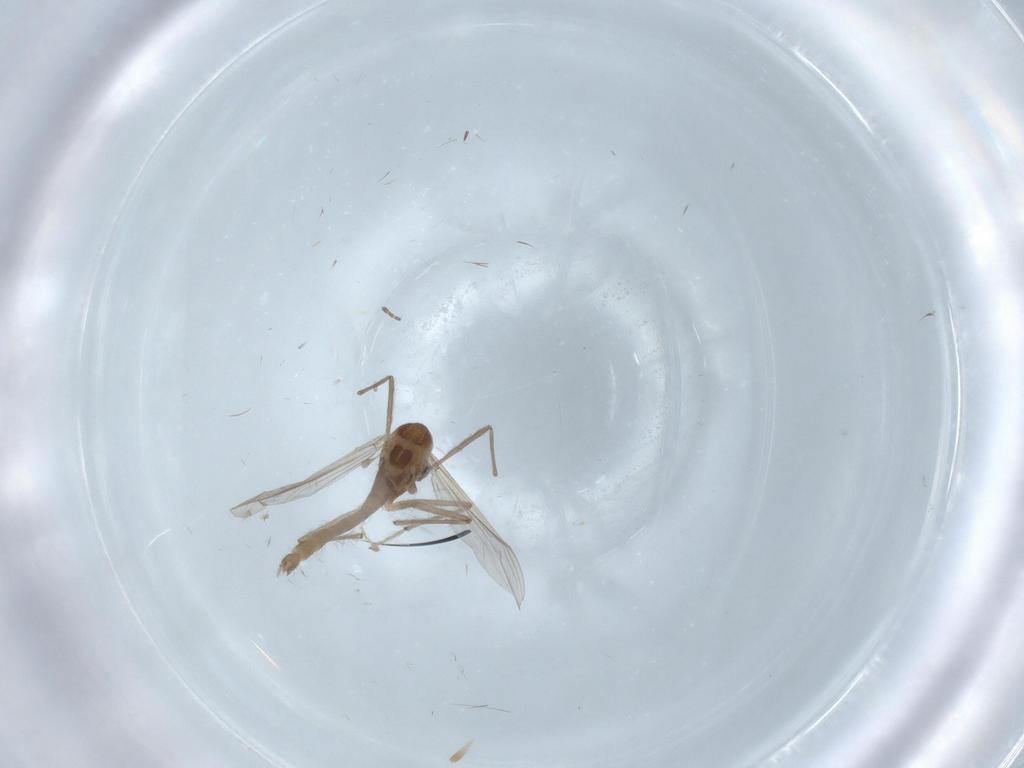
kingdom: Animalia
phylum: Arthropoda
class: Insecta
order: Diptera
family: Chironomidae
